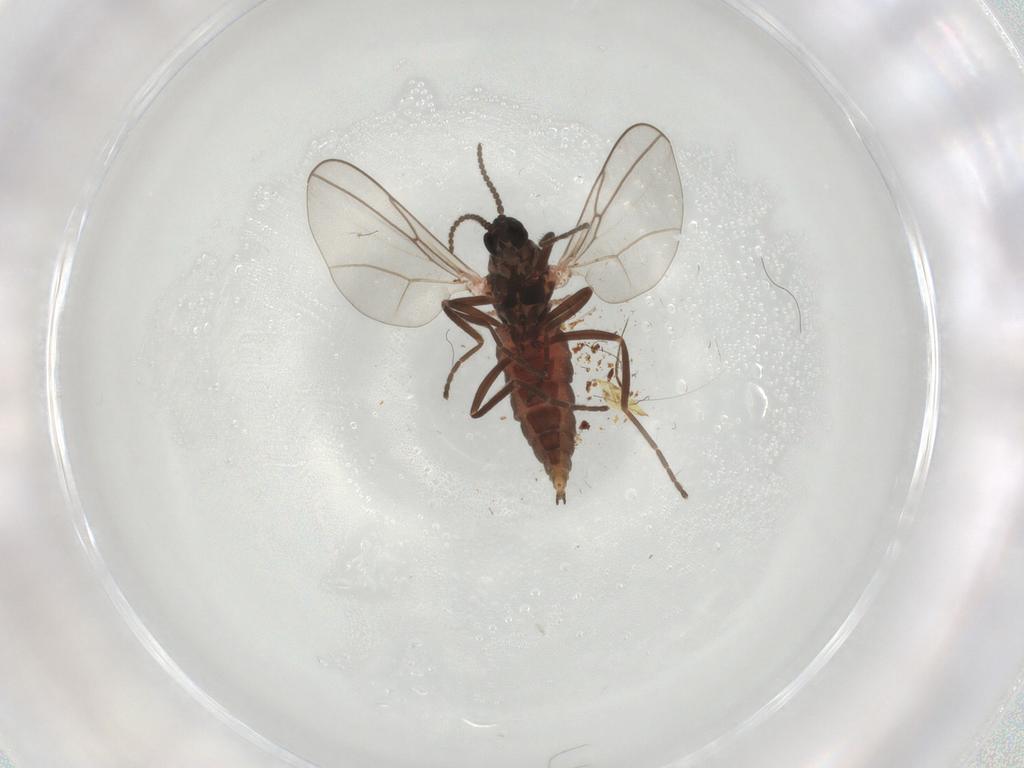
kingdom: Animalia
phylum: Arthropoda
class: Insecta
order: Diptera
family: Cecidomyiidae
